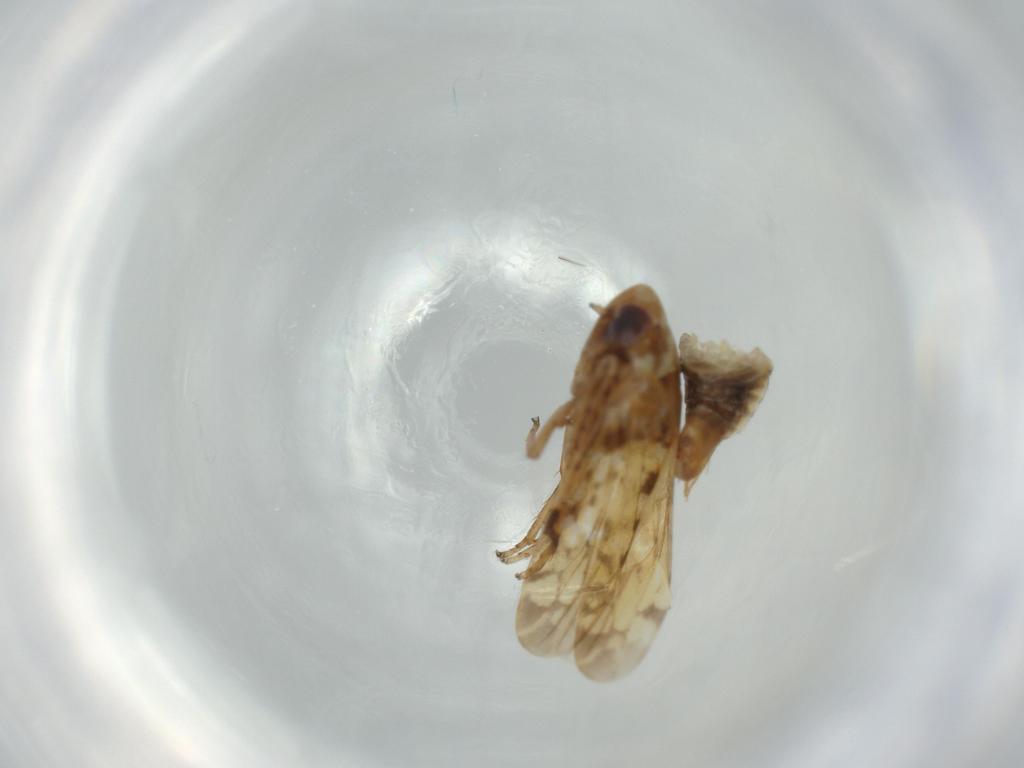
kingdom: Animalia
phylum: Arthropoda
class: Insecta
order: Hemiptera
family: Cicadellidae
